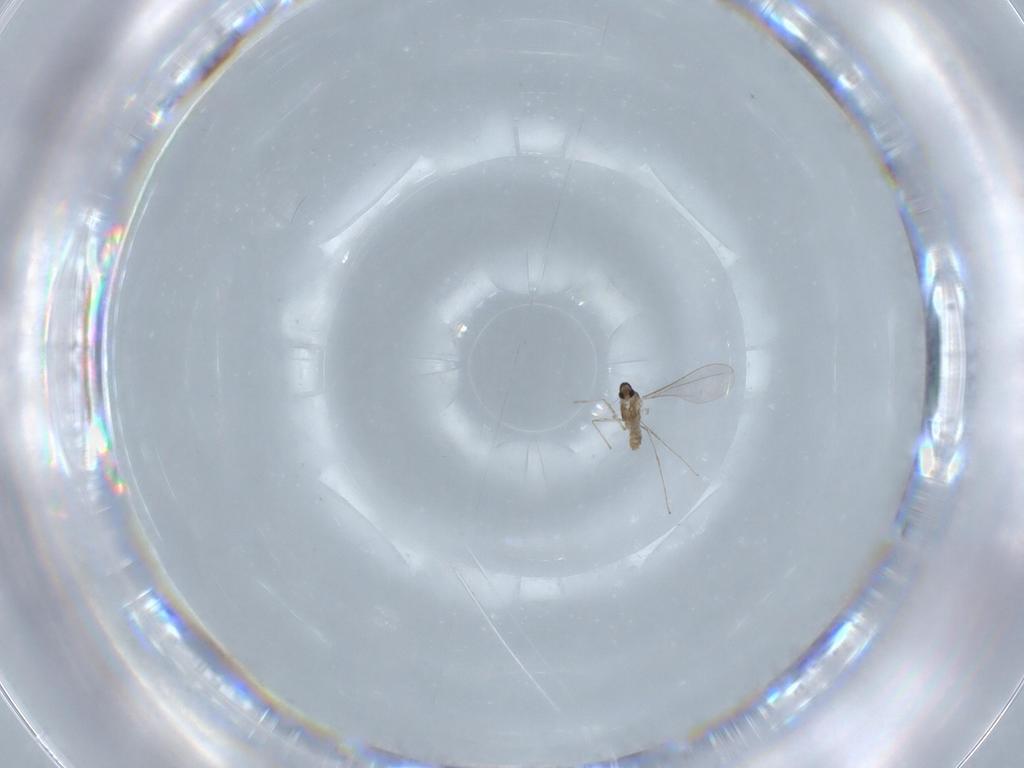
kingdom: Animalia
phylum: Arthropoda
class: Insecta
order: Diptera
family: Cecidomyiidae
